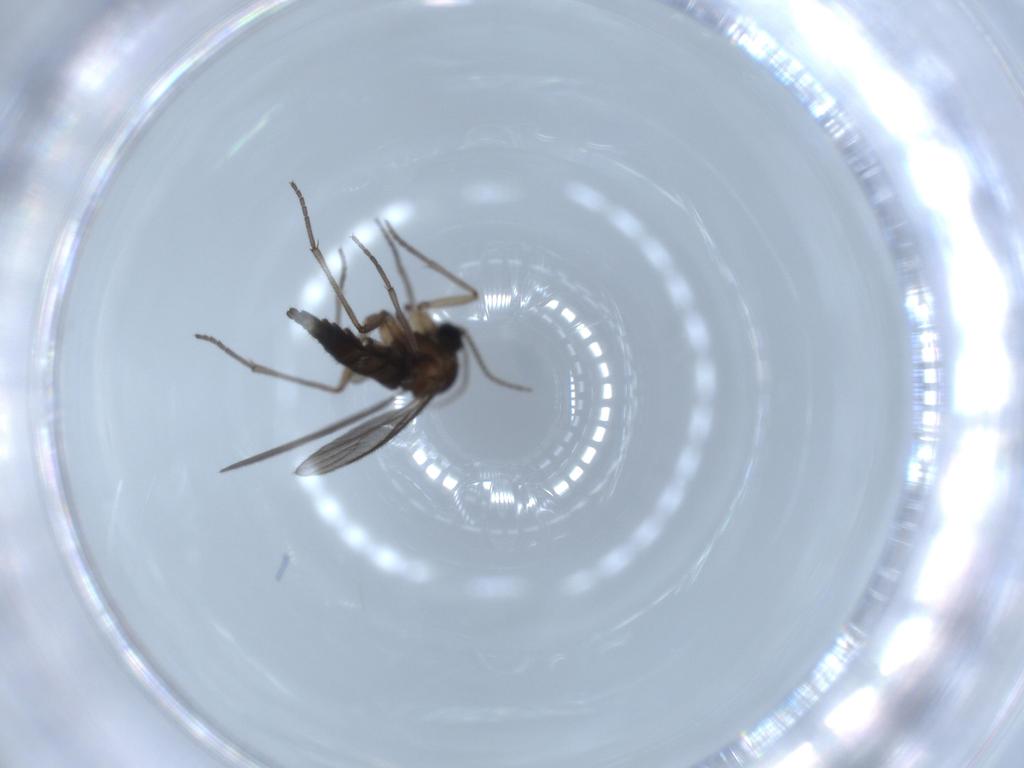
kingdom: Animalia
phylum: Arthropoda
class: Insecta
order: Diptera
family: Sciaridae
